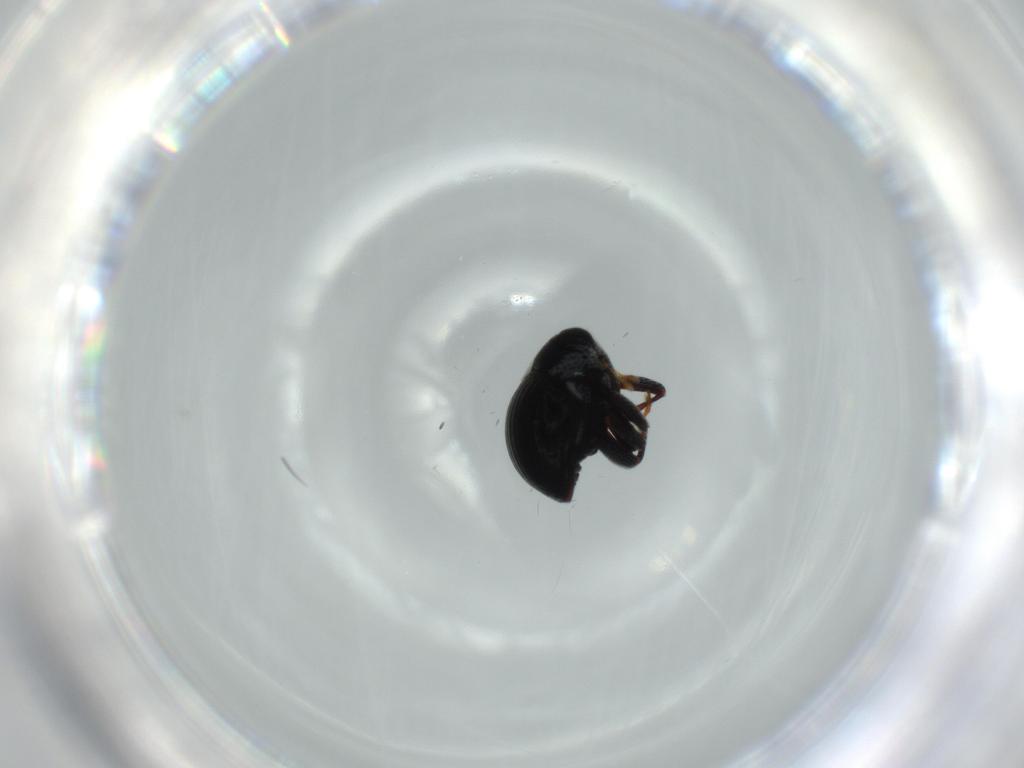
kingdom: Animalia
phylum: Arthropoda
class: Insecta
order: Coleoptera
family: Curculionidae
